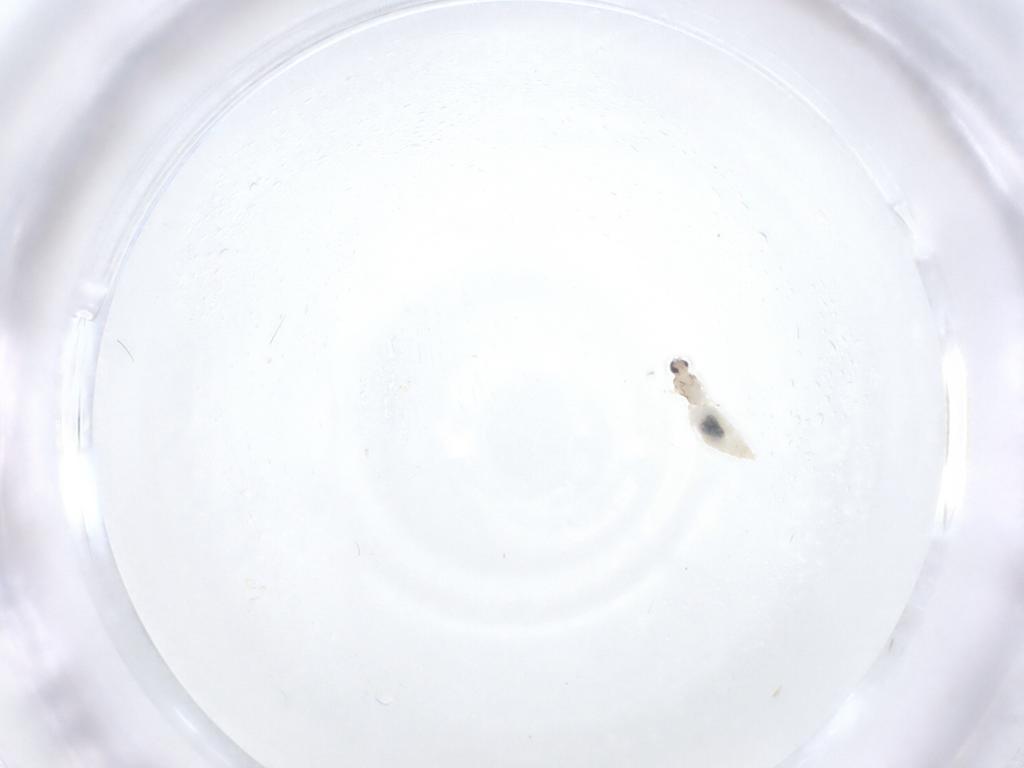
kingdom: Animalia
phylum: Arthropoda
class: Insecta
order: Diptera
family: Cecidomyiidae
